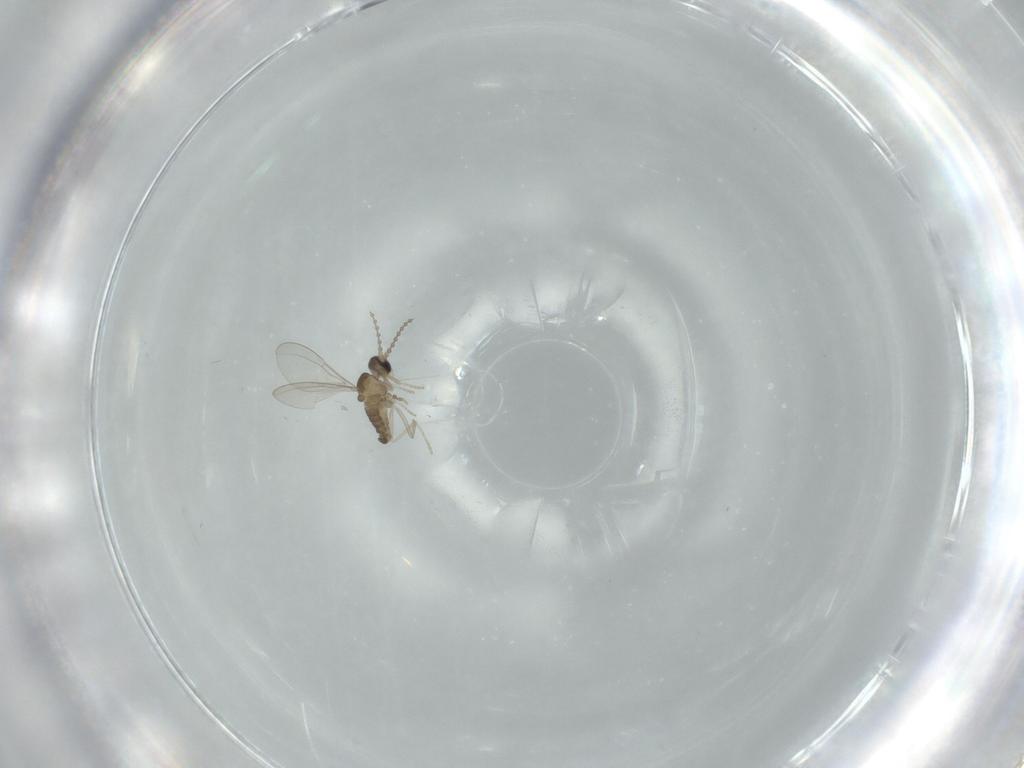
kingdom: Animalia
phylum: Arthropoda
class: Insecta
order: Diptera
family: Cecidomyiidae
